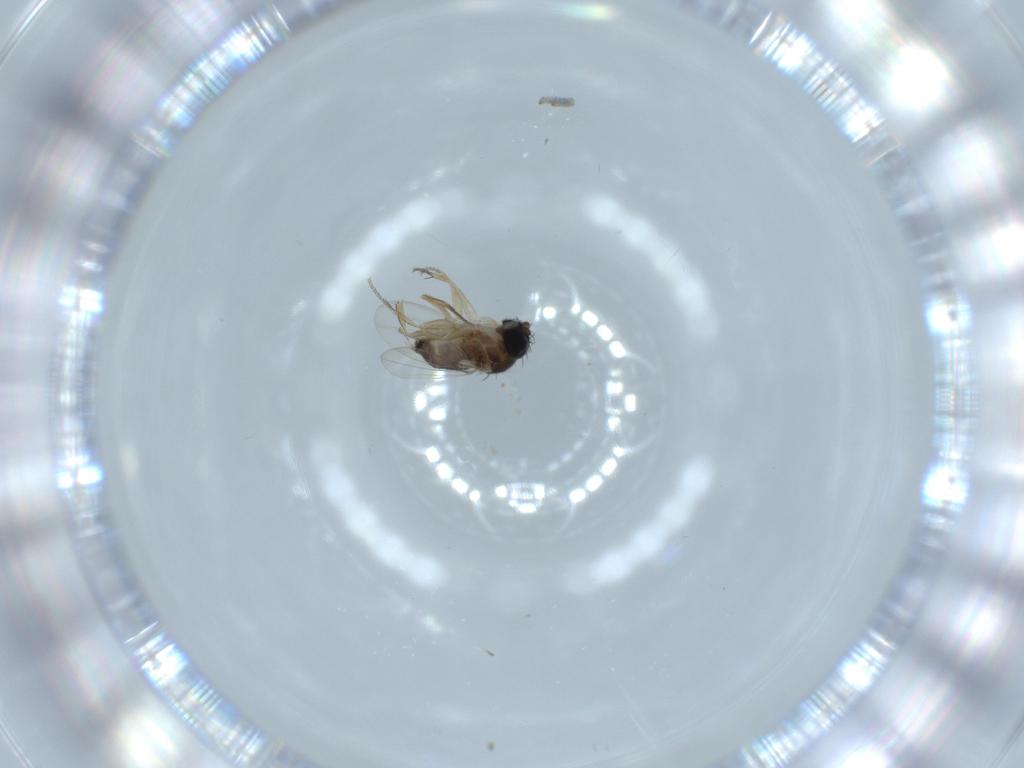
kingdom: Animalia
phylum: Arthropoda
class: Insecta
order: Diptera
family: Phoridae
